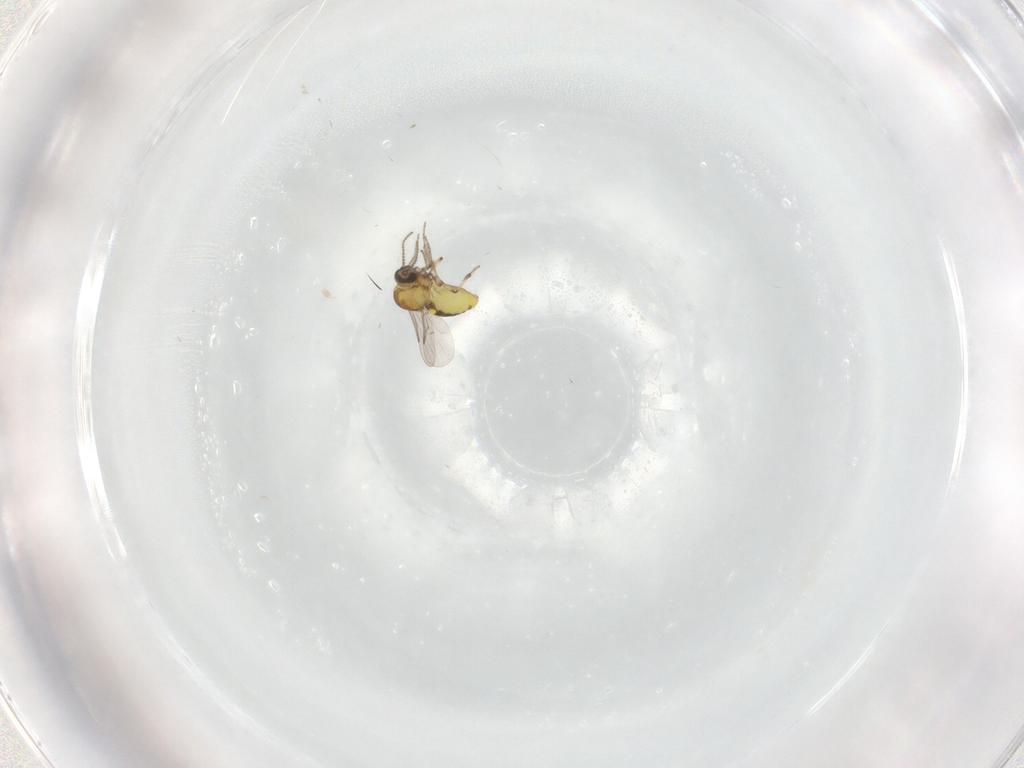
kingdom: Animalia
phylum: Arthropoda
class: Insecta
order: Diptera
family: Ceratopogonidae
